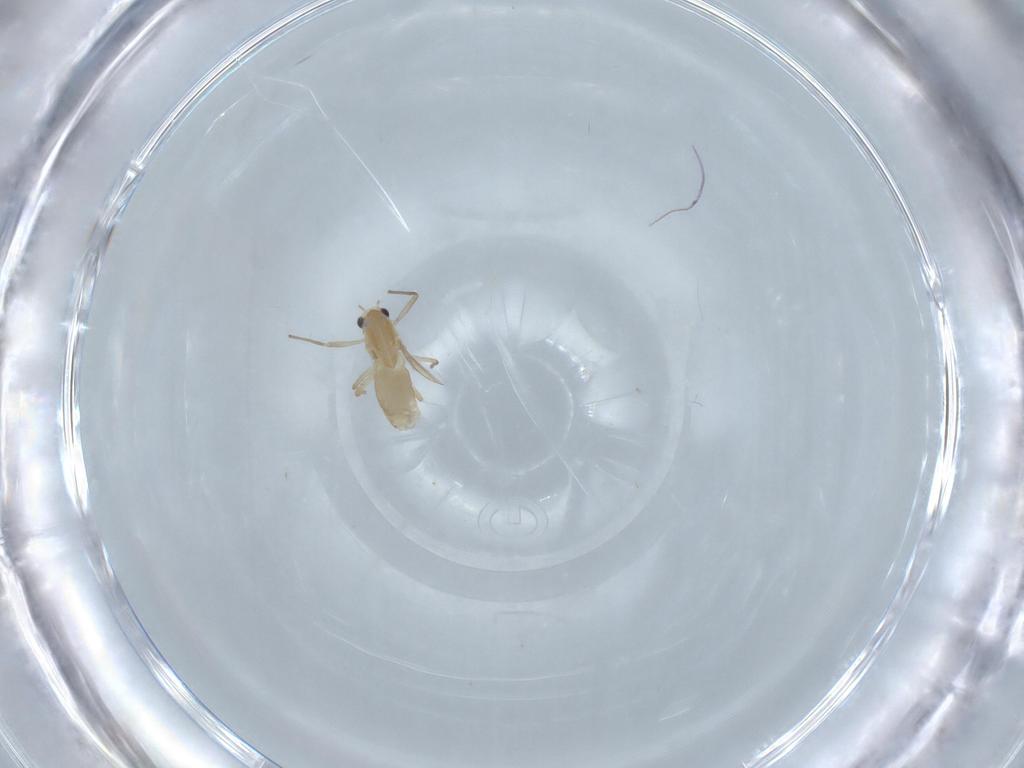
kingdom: Animalia
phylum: Arthropoda
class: Insecta
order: Diptera
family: Chironomidae
